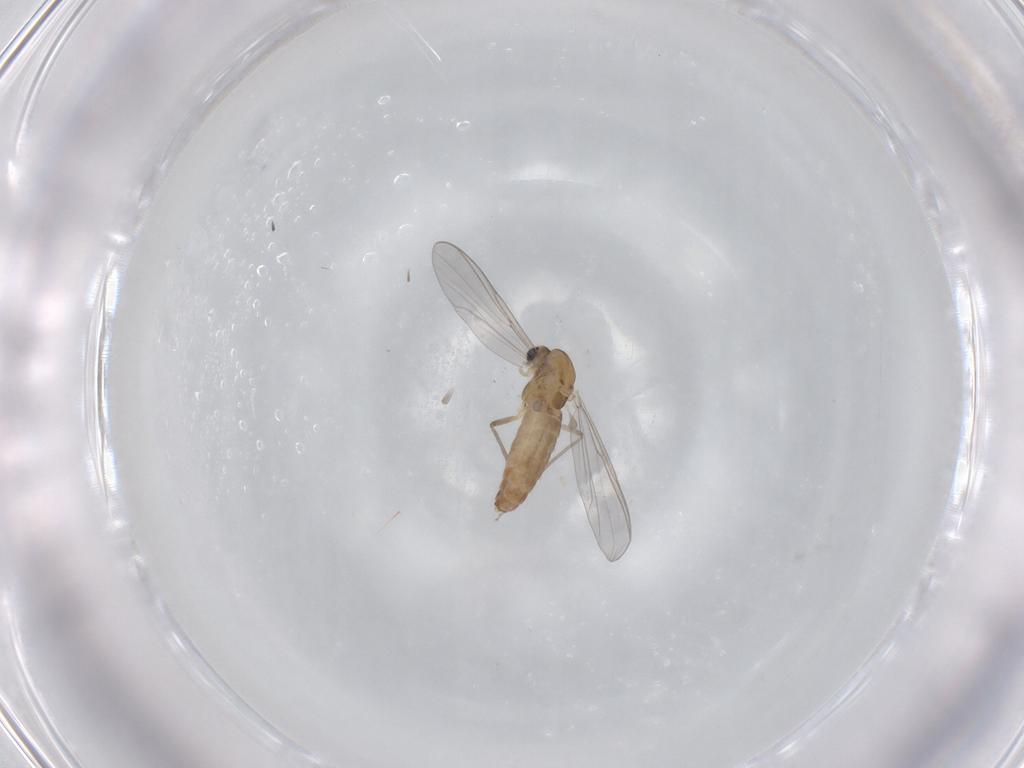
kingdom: Animalia
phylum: Arthropoda
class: Insecta
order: Diptera
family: Chironomidae
